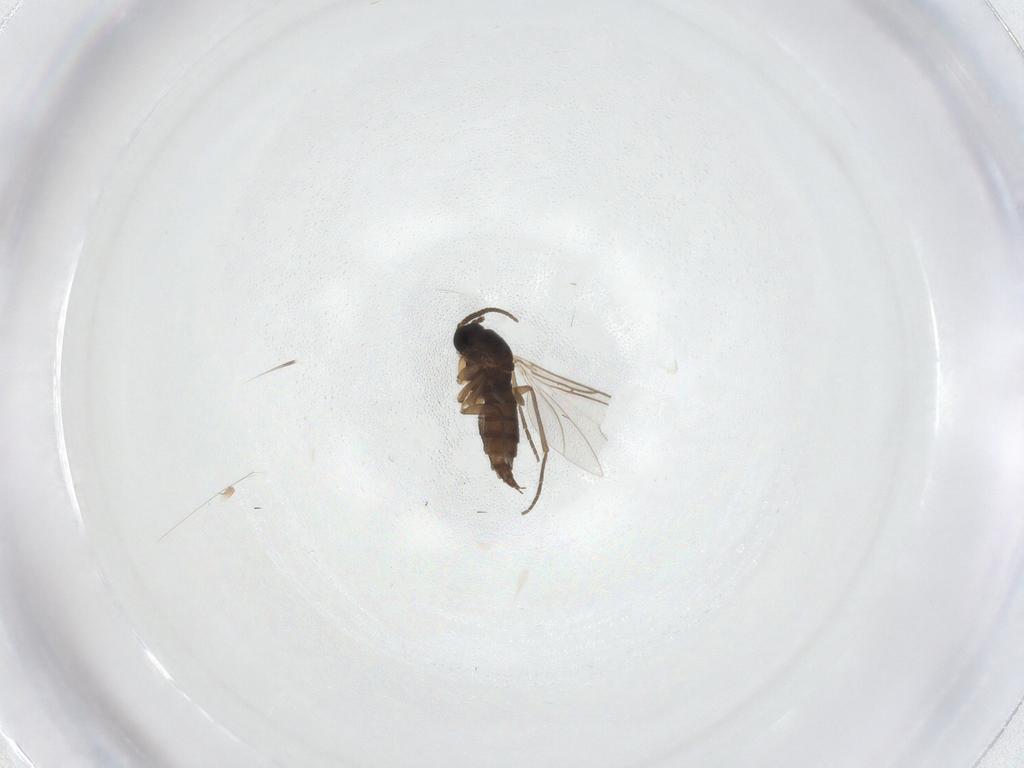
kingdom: Animalia
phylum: Arthropoda
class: Insecta
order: Diptera
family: Sciaridae
